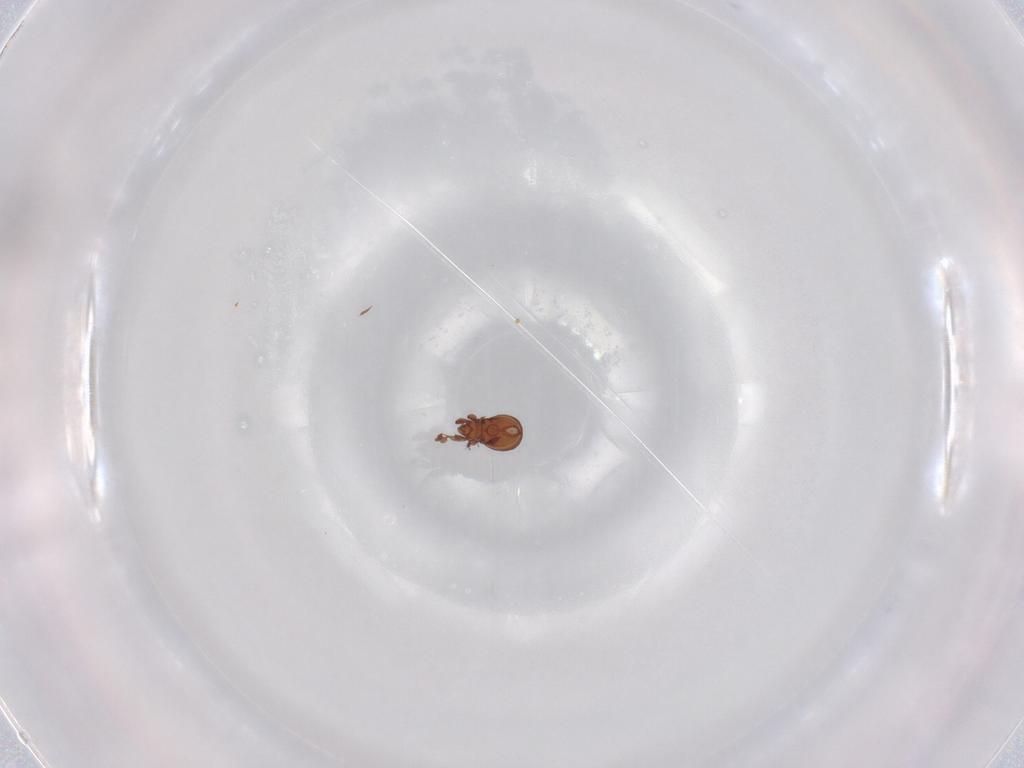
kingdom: Animalia
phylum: Arthropoda
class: Arachnida
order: Sarcoptiformes
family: Eremaeidae
